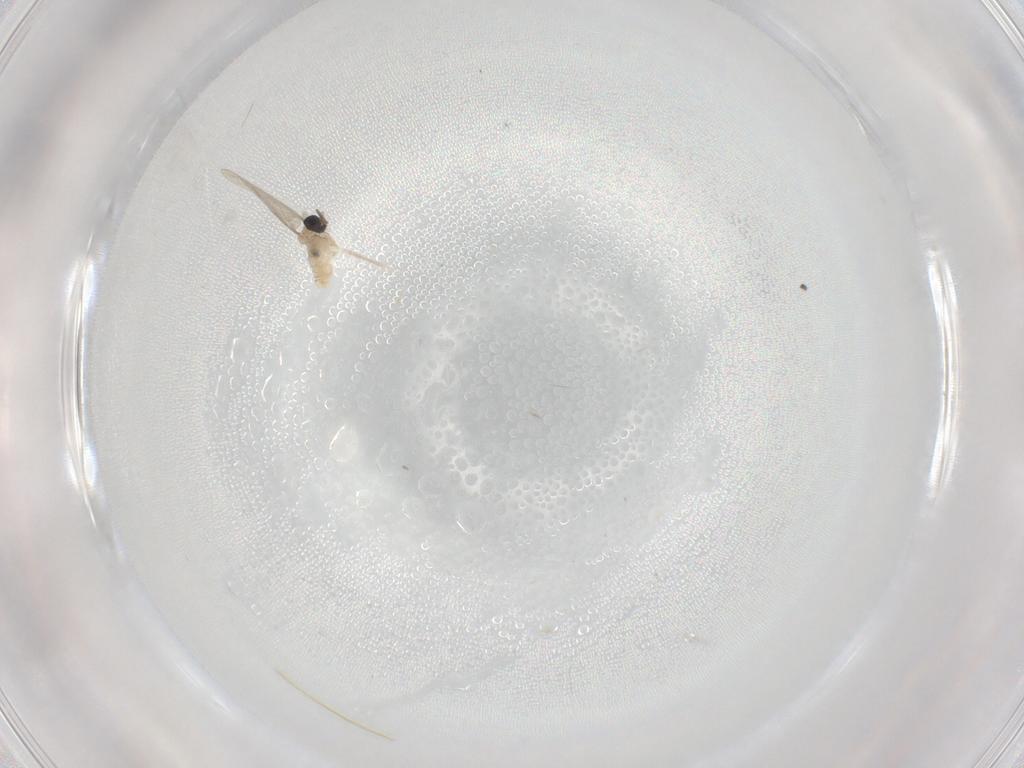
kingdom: Animalia
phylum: Arthropoda
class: Insecta
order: Diptera
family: Cecidomyiidae
